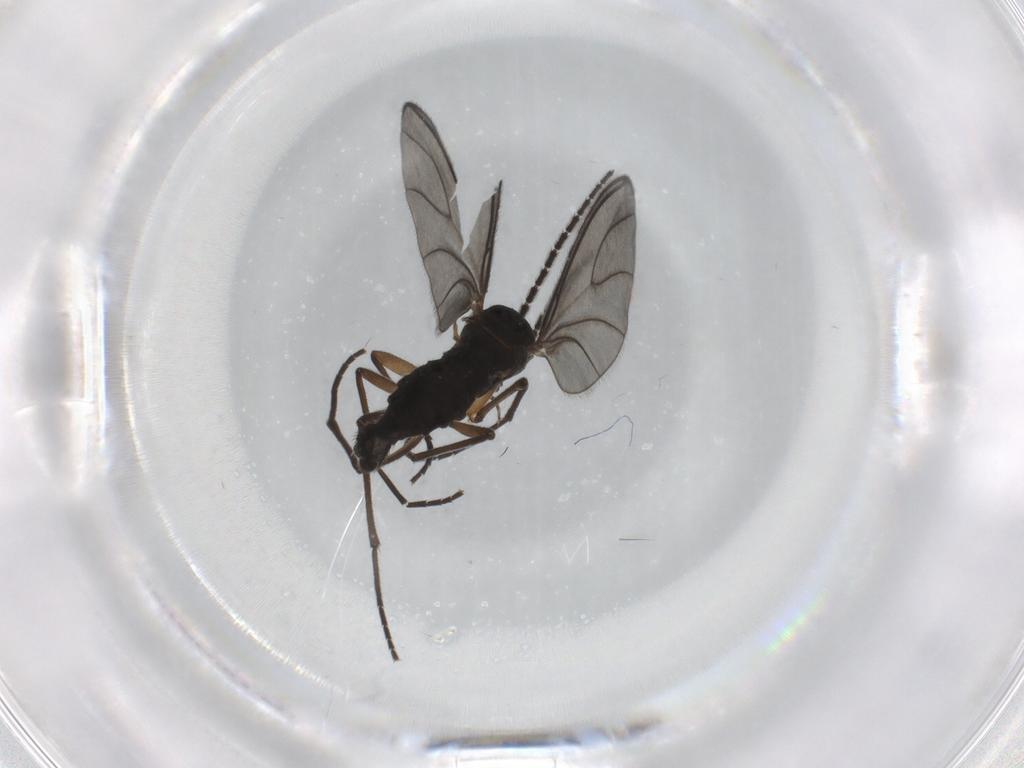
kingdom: Animalia
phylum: Arthropoda
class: Insecta
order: Diptera
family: Sciaridae
